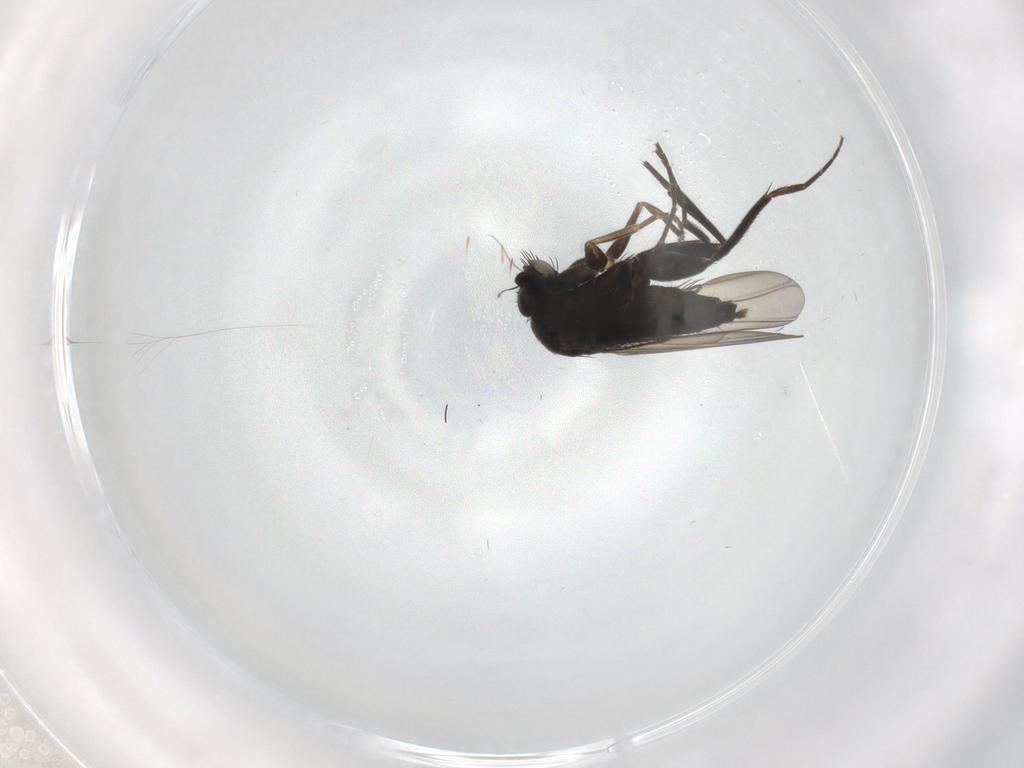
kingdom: Animalia
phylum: Arthropoda
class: Insecta
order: Diptera
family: Phoridae
